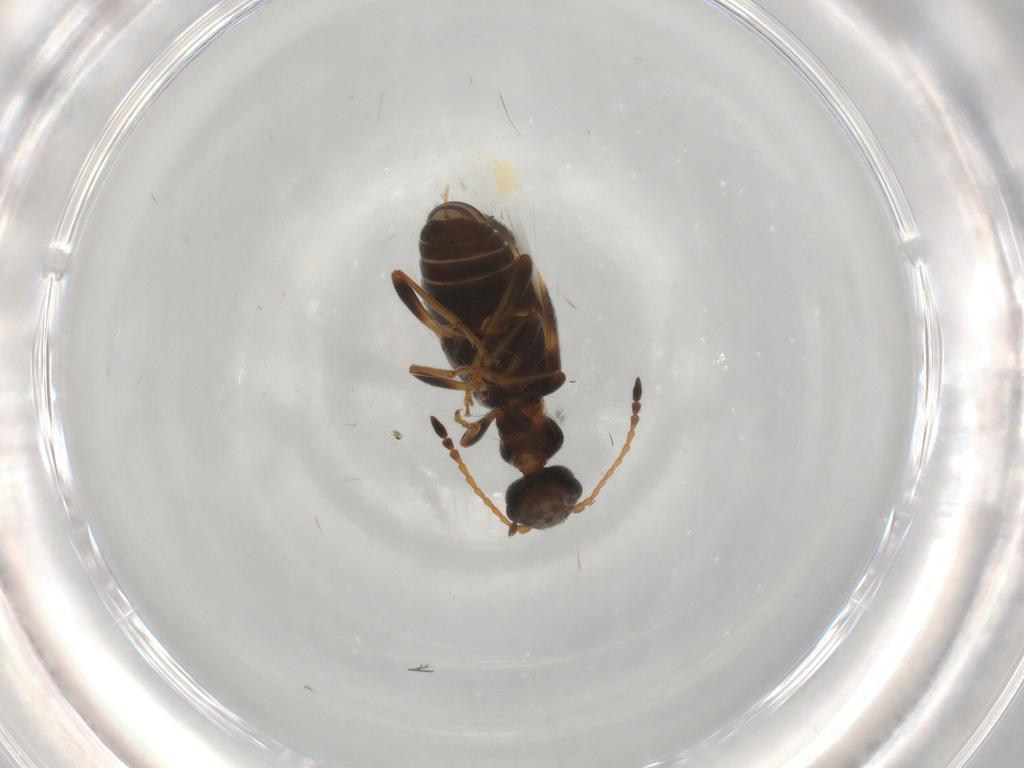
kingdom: Animalia
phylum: Arthropoda
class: Insecta
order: Coleoptera
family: Anthicidae
